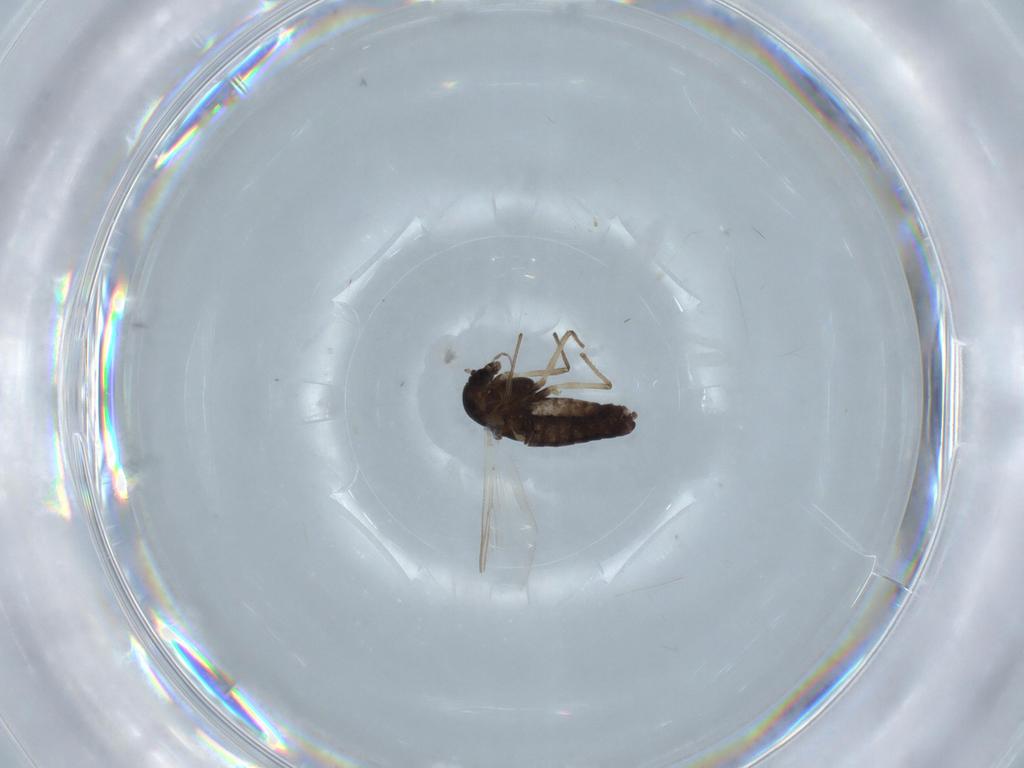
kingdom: Animalia
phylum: Arthropoda
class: Insecta
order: Diptera
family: Chironomidae
